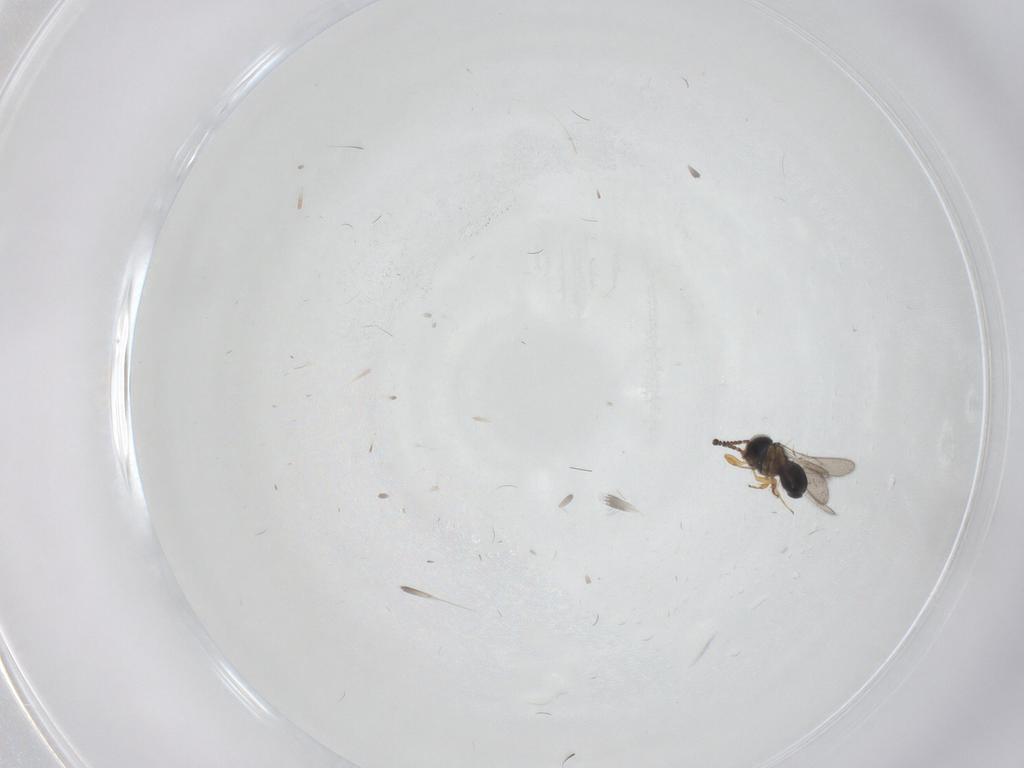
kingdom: Animalia
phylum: Arthropoda
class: Insecta
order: Hymenoptera
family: Scelionidae
